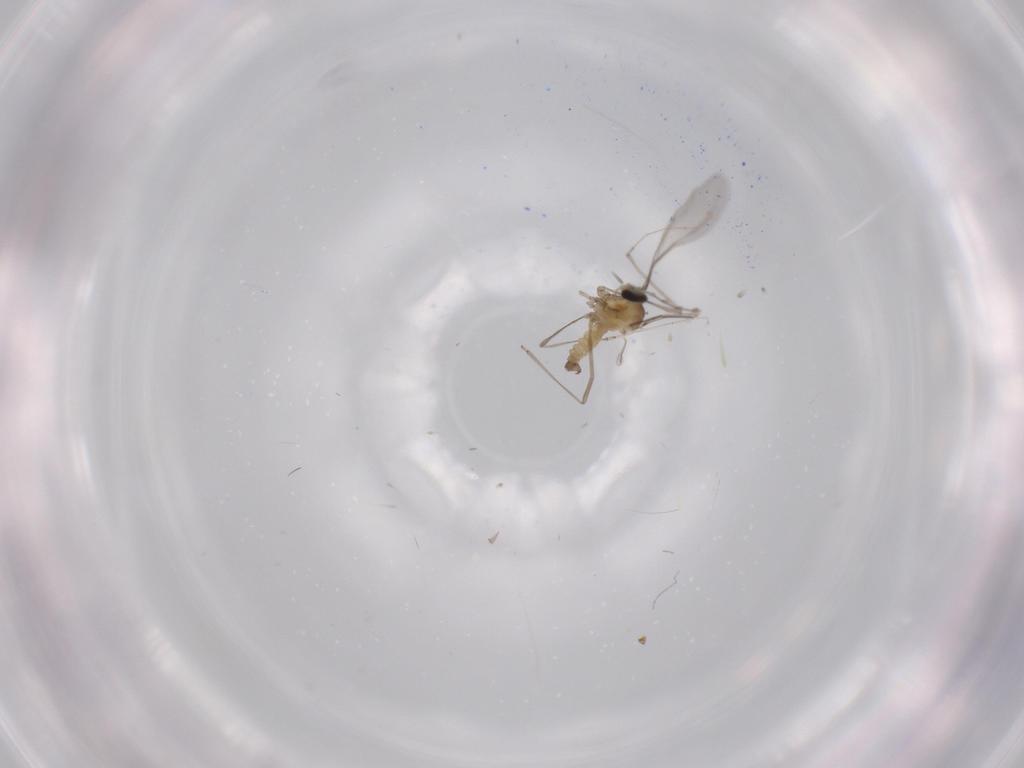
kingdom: Animalia
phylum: Arthropoda
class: Insecta
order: Diptera
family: Cecidomyiidae
